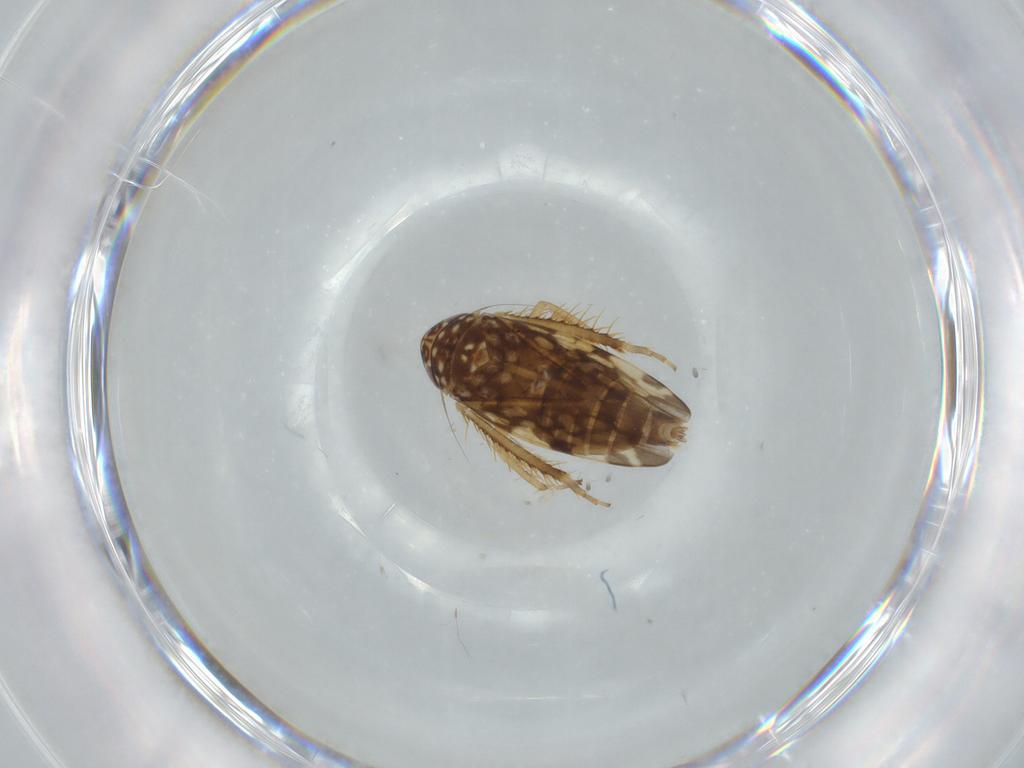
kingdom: Animalia
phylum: Arthropoda
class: Insecta
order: Hemiptera
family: Cicadellidae
